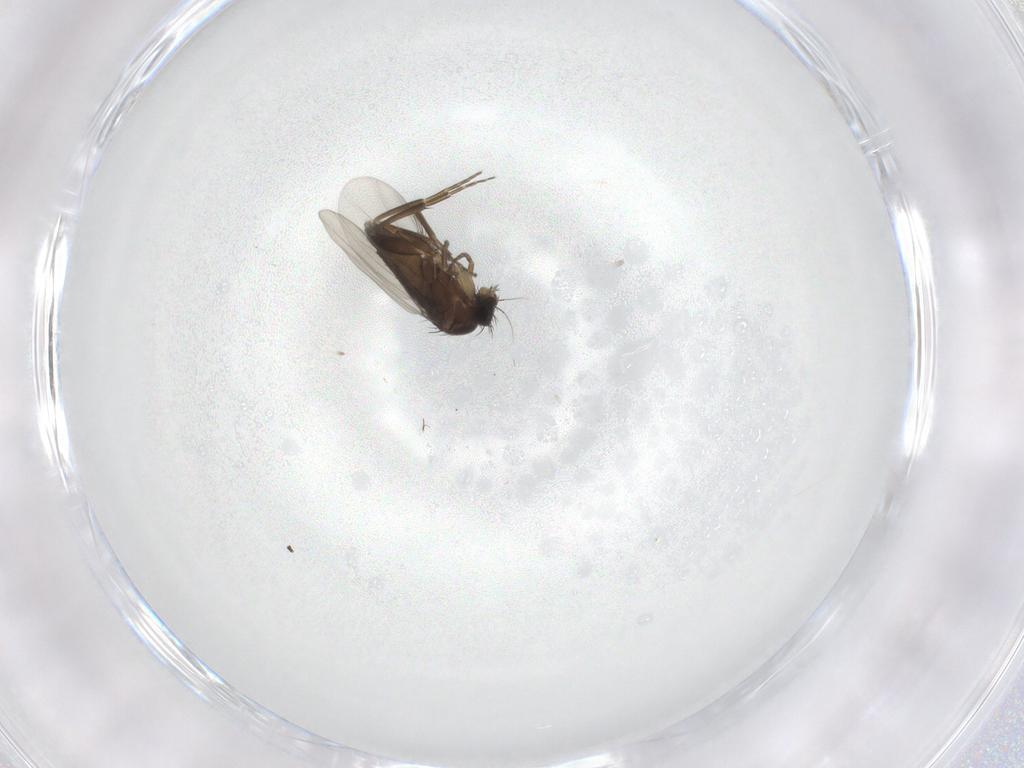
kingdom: Animalia
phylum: Arthropoda
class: Insecta
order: Diptera
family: Phoridae
